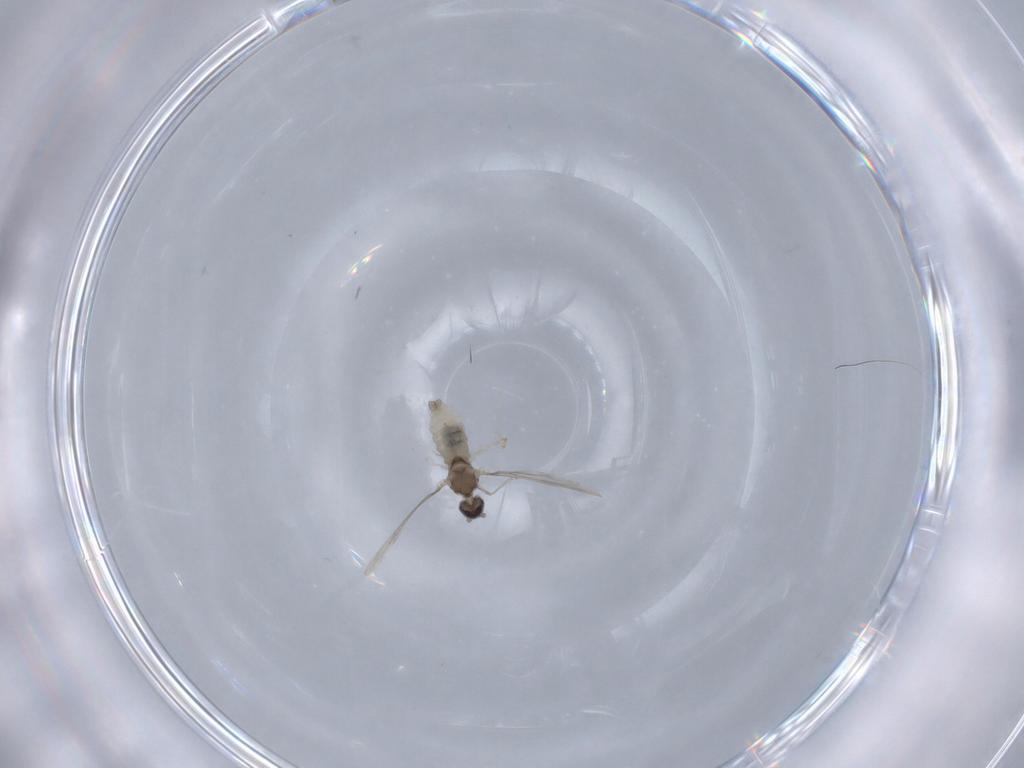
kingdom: Animalia
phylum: Arthropoda
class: Insecta
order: Diptera
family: Cecidomyiidae
